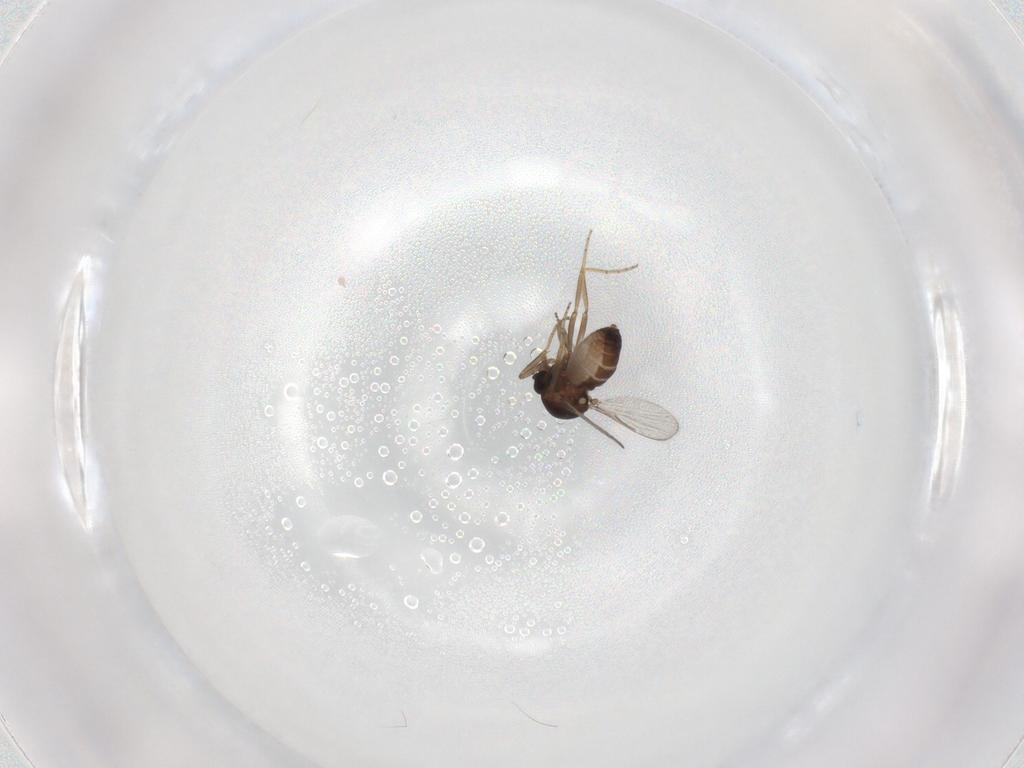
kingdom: Animalia
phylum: Arthropoda
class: Insecta
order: Diptera
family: Ceratopogonidae
